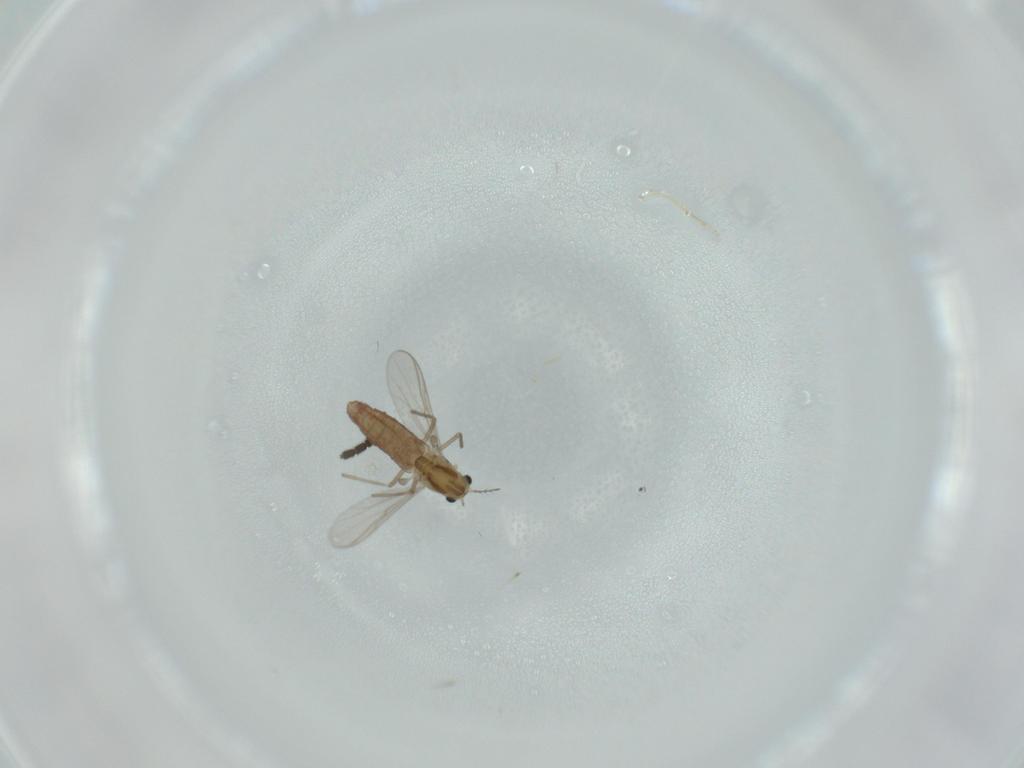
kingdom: Animalia
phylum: Arthropoda
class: Insecta
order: Diptera
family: Chironomidae
